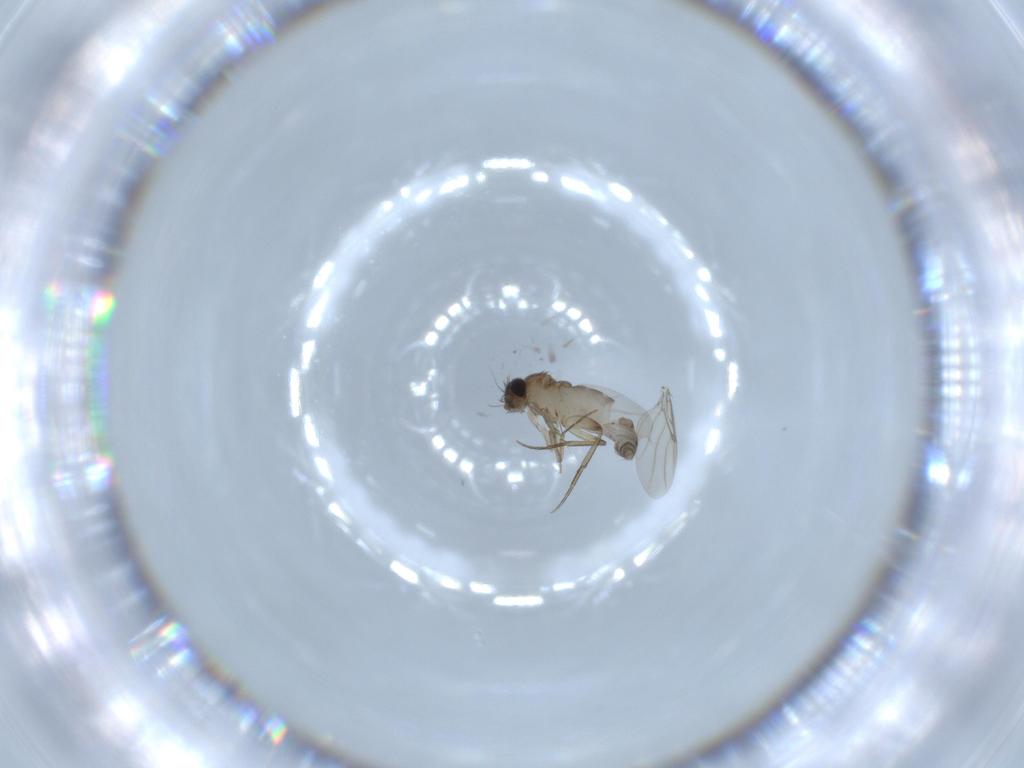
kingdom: Animalia
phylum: Arthropoda
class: Insecta
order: Diptera
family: Phoridae
